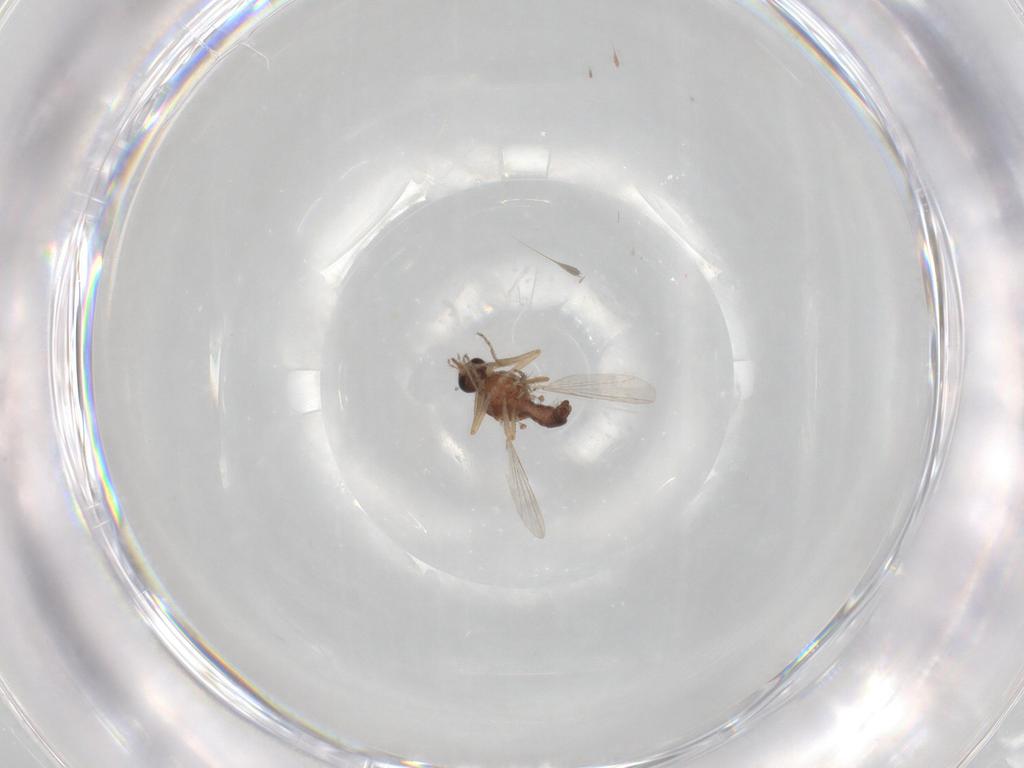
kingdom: Animalia
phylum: Arthropoda
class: Insecta
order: Diptera
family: Ceratopogonidae
